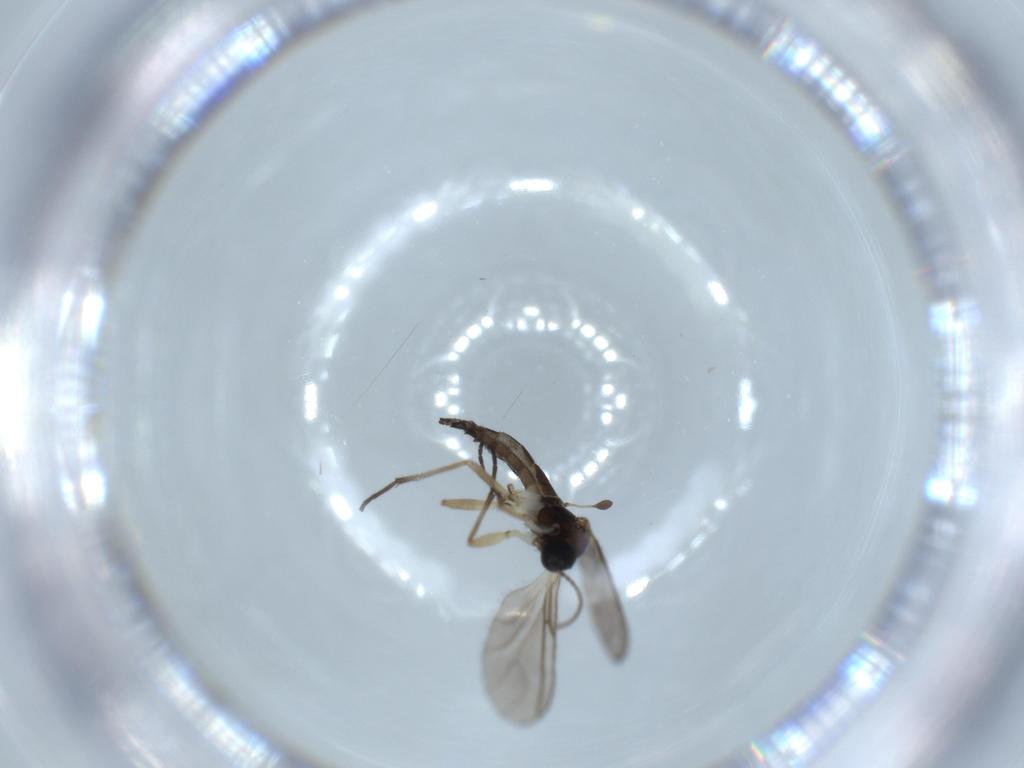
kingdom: Animalia
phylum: Arthropoda
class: Insecta
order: Diptera
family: Sciaridae
